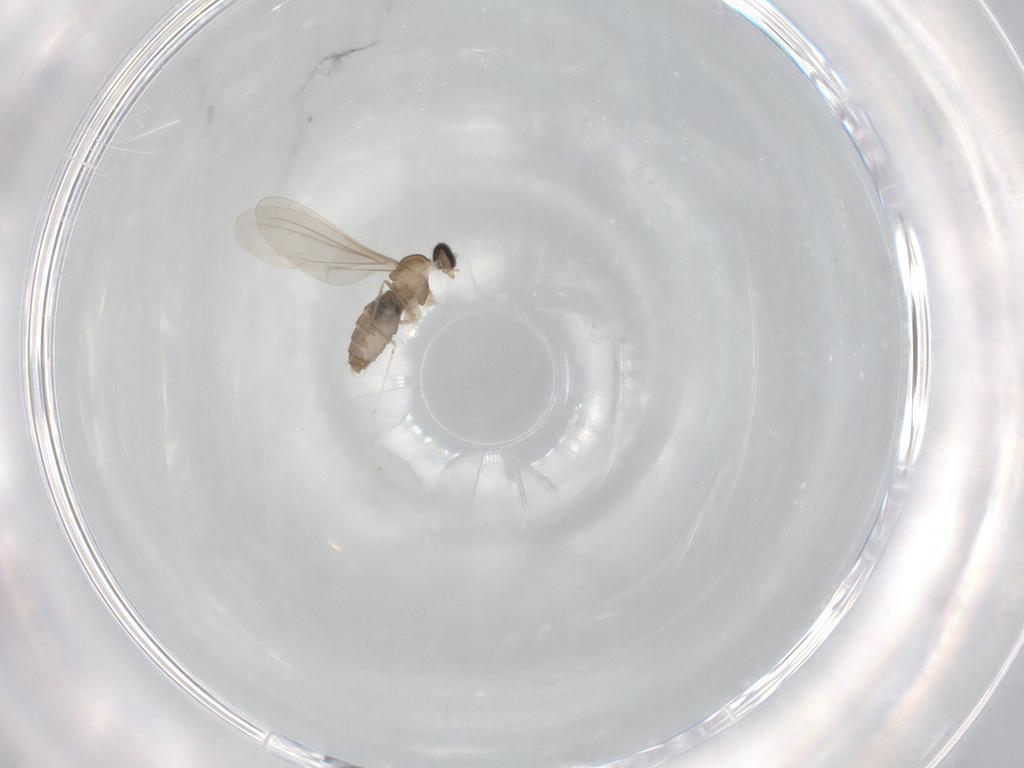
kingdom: Animalia
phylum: Arthropoda
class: Insecta
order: Diptera
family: Cecidomyiidae
